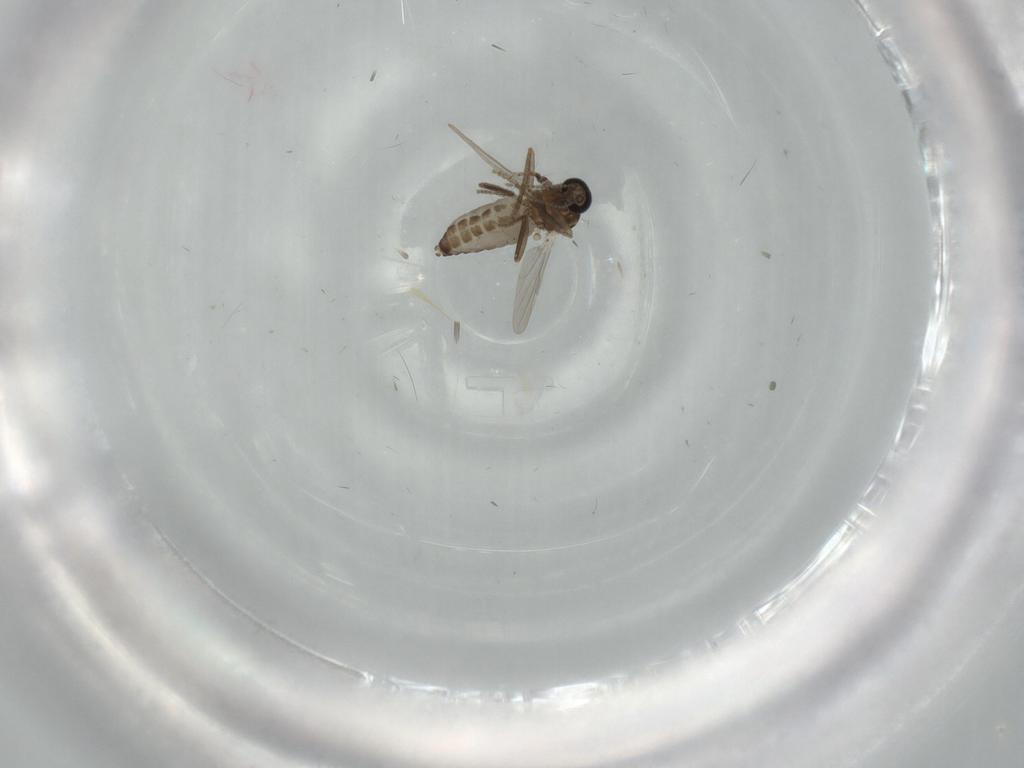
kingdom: Animalia
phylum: Arthropoda
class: Insecta
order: Diptera
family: Ceratopogonidae
